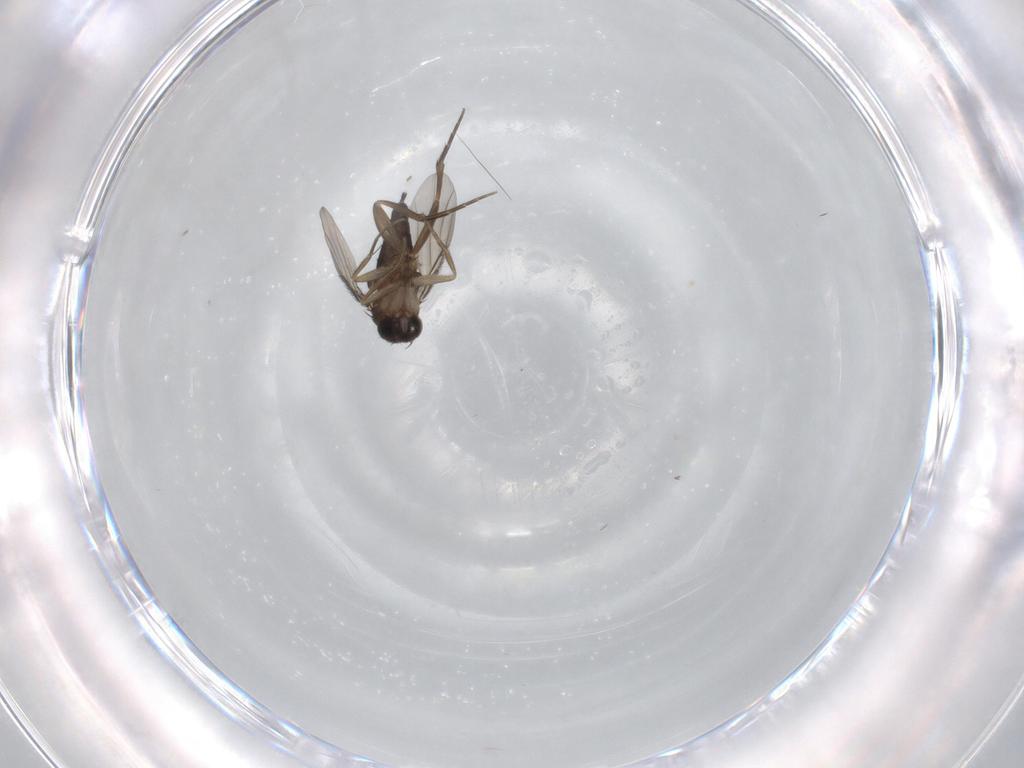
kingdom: Animalia
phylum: Arthropoda
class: Insecta
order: Diptera
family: Phoridae
